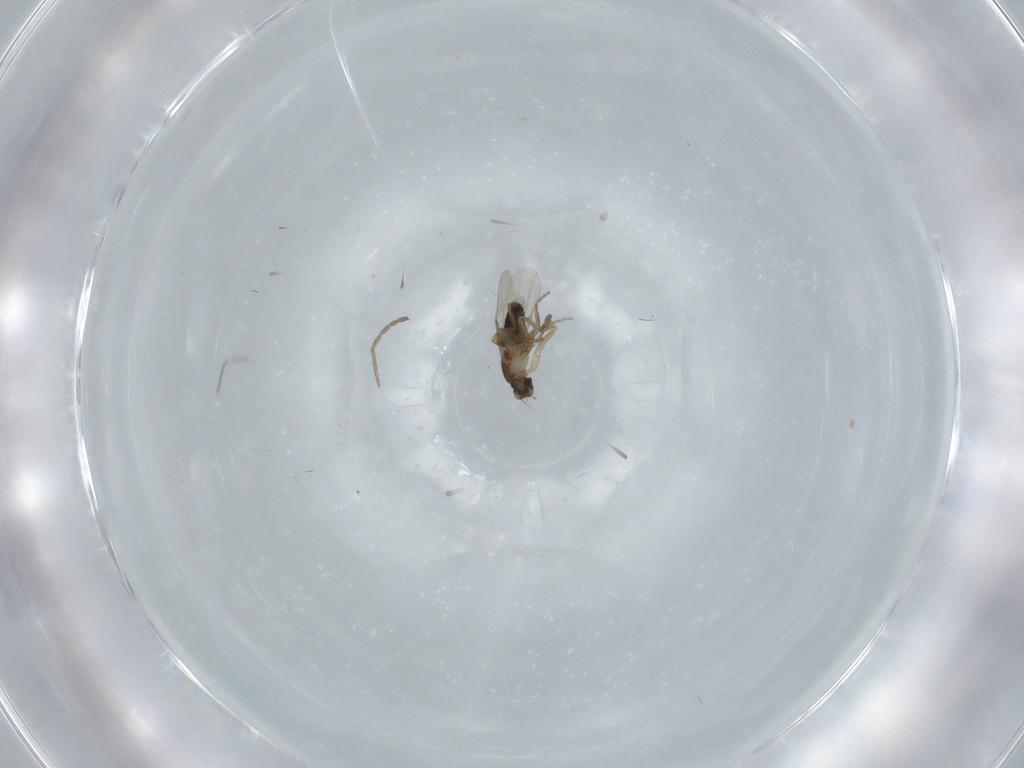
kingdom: Animalia
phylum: Arthropoda
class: Insecta
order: Diptera
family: Phoridae
